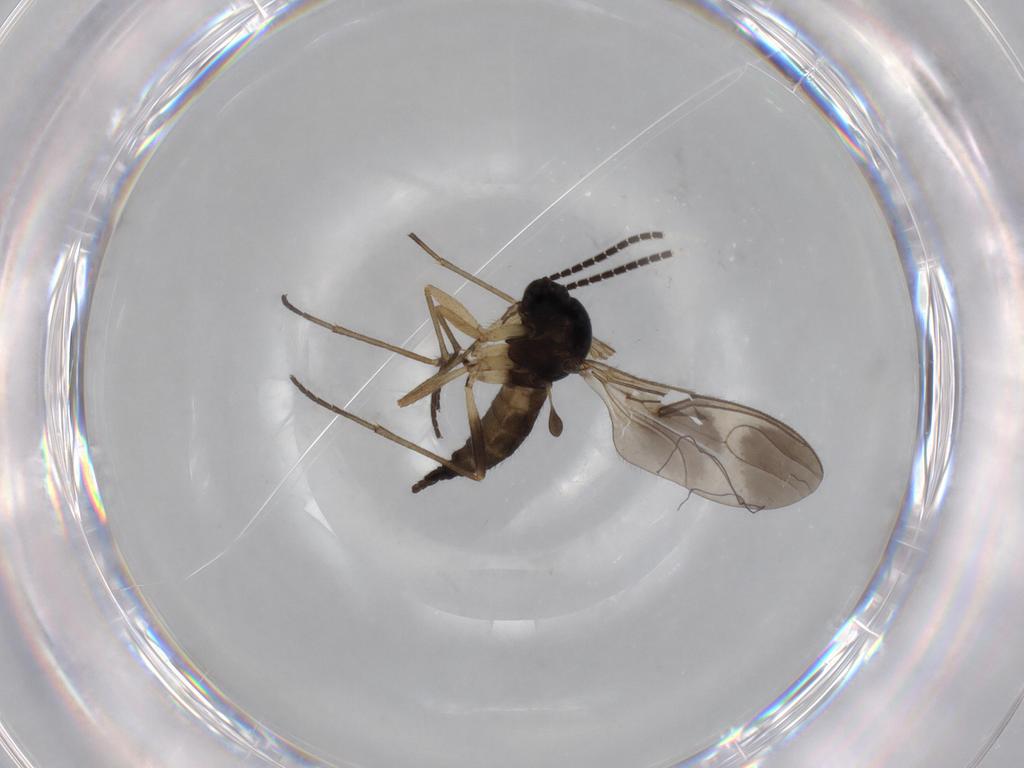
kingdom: Animalia
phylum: Arthropoda
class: Insecta
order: Diptera
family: Sciaridae
